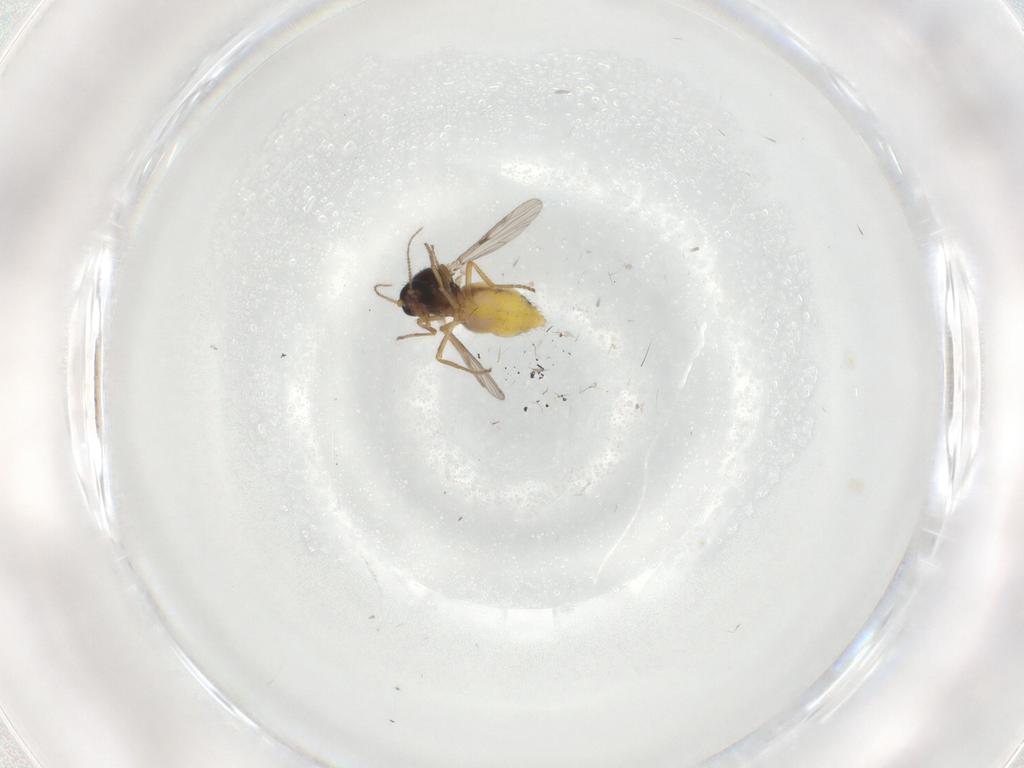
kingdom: Animalia
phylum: Arthropoda
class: Insecta
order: Diptera
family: Ceratopogonidae
